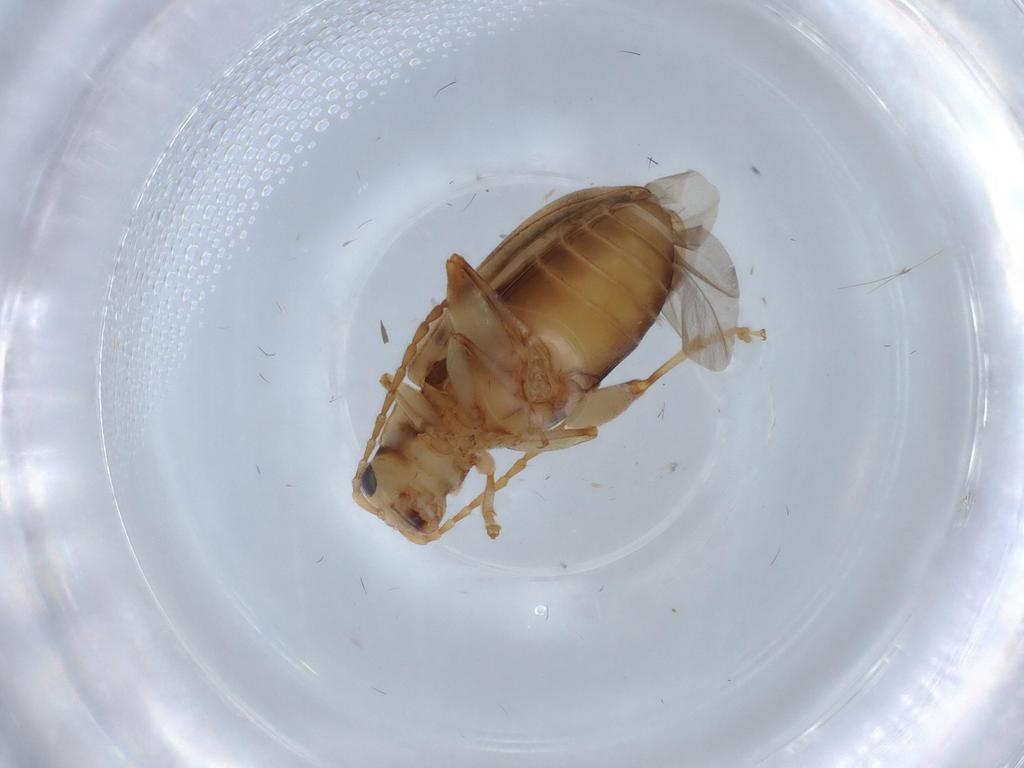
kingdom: Animalia
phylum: Arthropoda
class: Insecta
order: Coleoptera
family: Chrysomelidae
